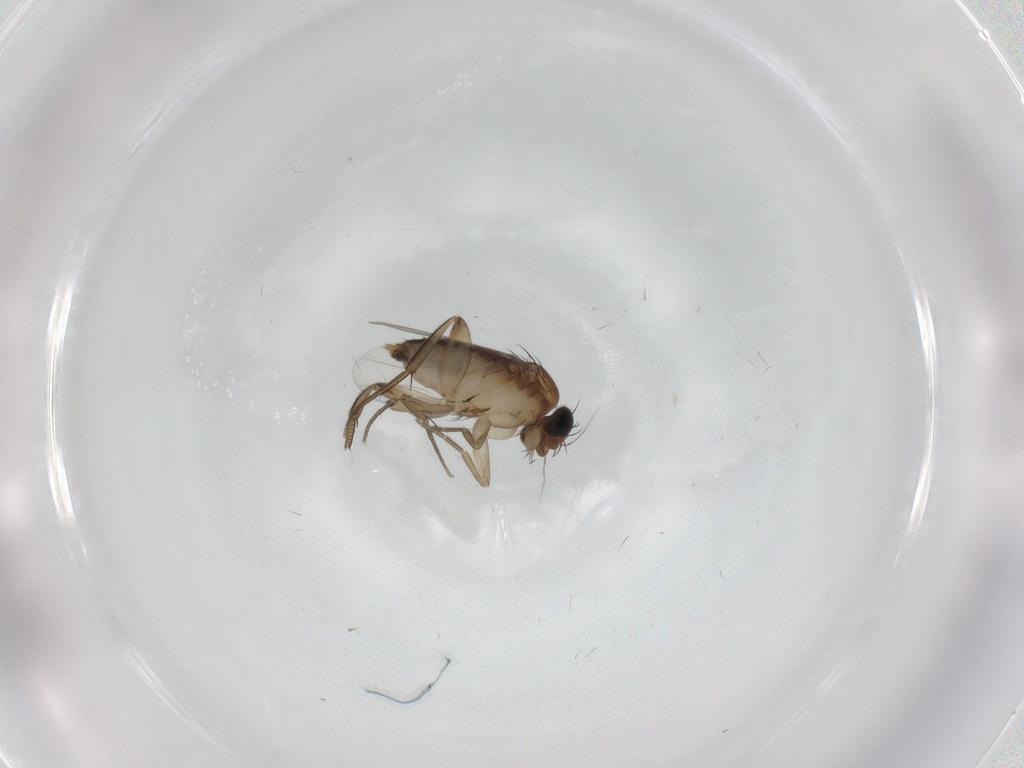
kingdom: Animalia
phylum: Arthropoda
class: Insecta
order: Diptera
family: Phoridae
